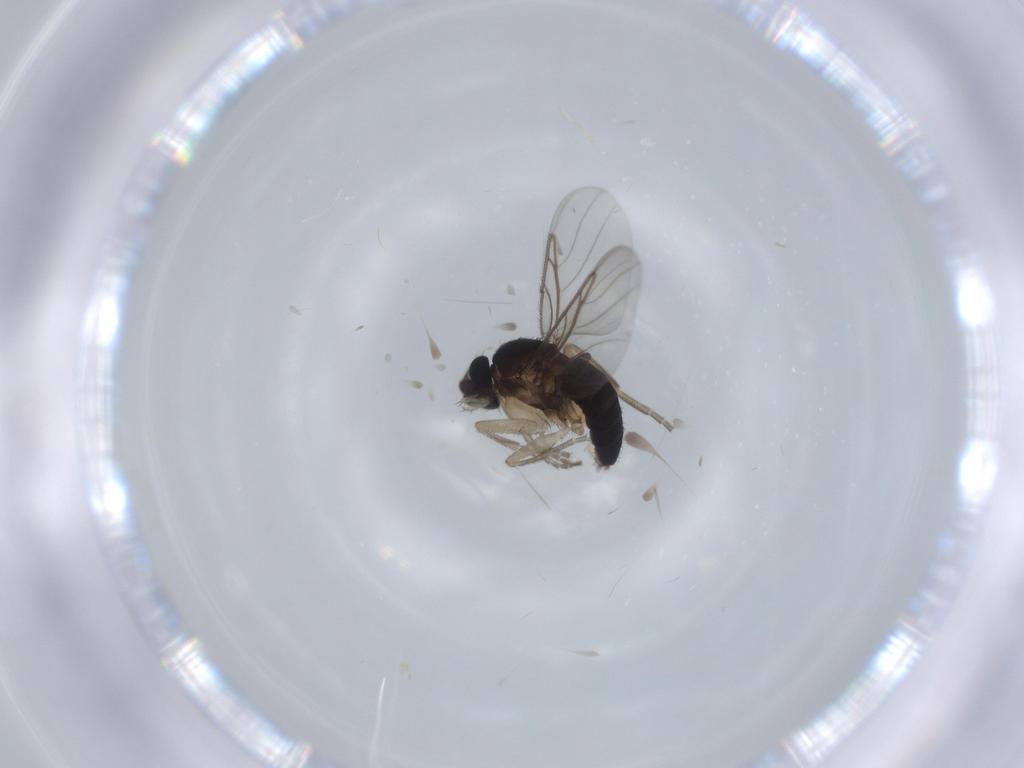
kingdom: Animalia
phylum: Arthropoda
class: Insecta
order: Diptera
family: Phoridae
